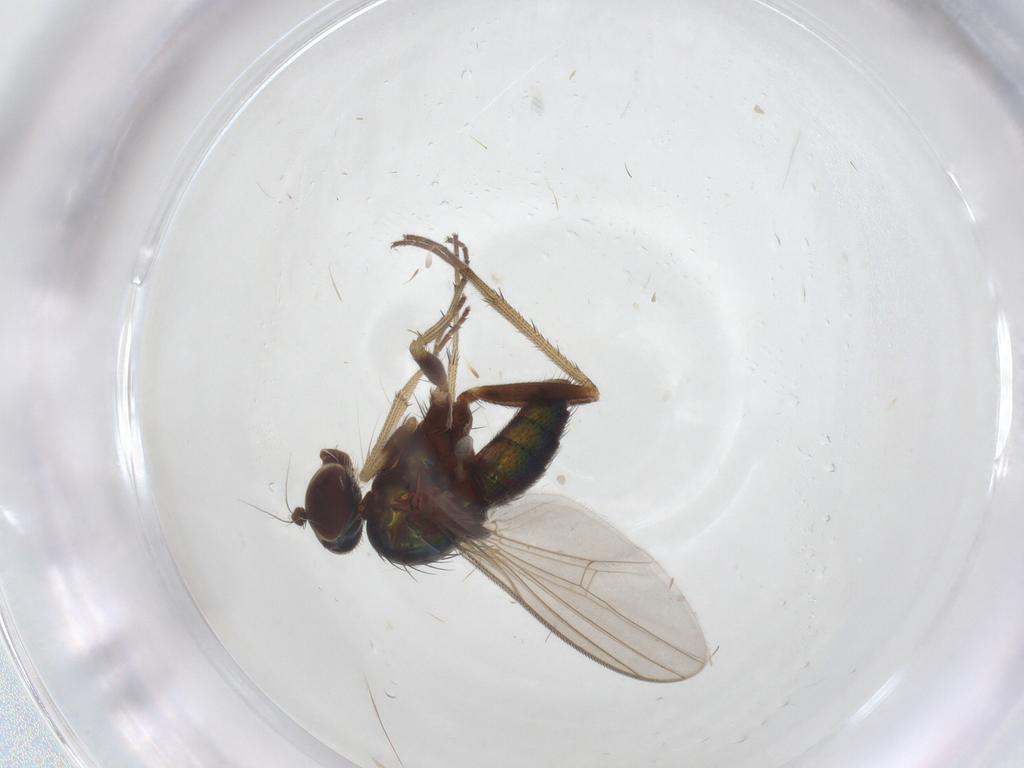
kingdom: Animalia
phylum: Arthropoda
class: Insecta
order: Diptera
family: Dolichopodidae
